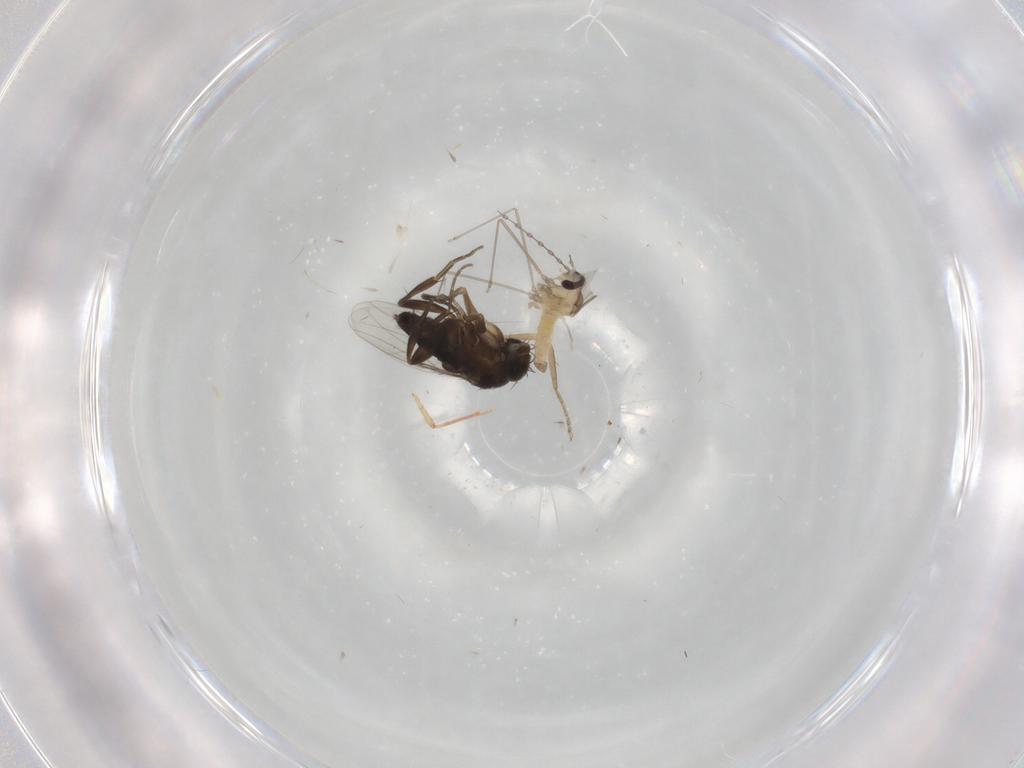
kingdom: Animalia
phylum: Arthropoda
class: Insecta
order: Diptera
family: Phoridae
